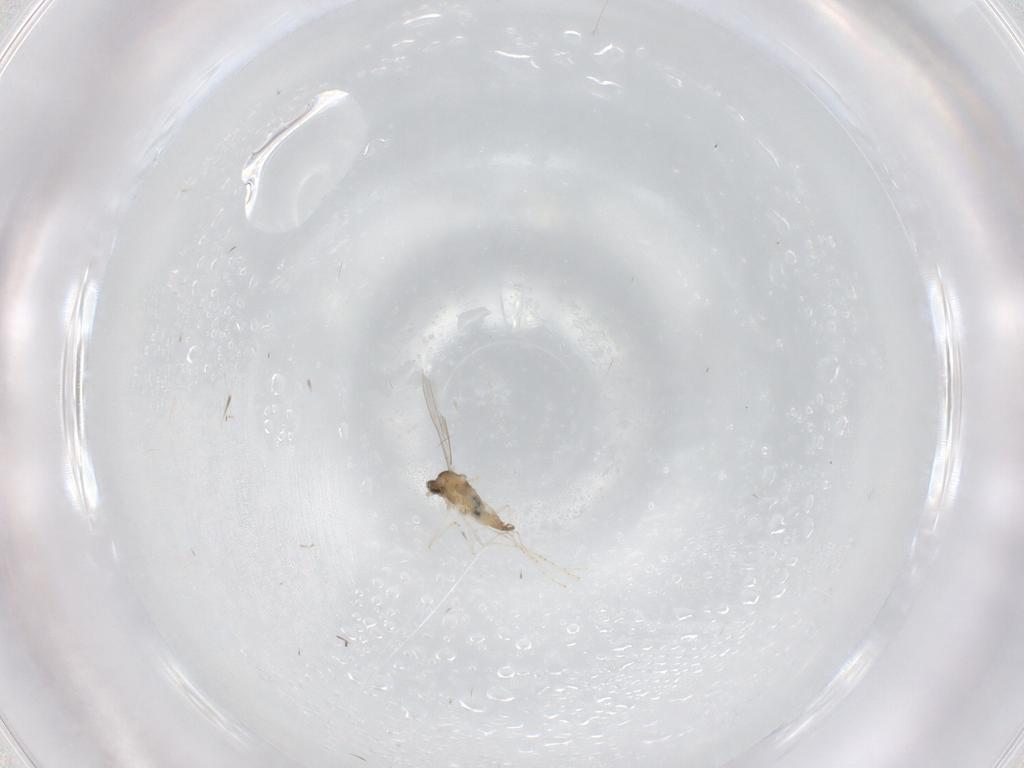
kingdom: Animalia
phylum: Arthropoda
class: Insecta
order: Diptera
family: Cecidomyiidae
